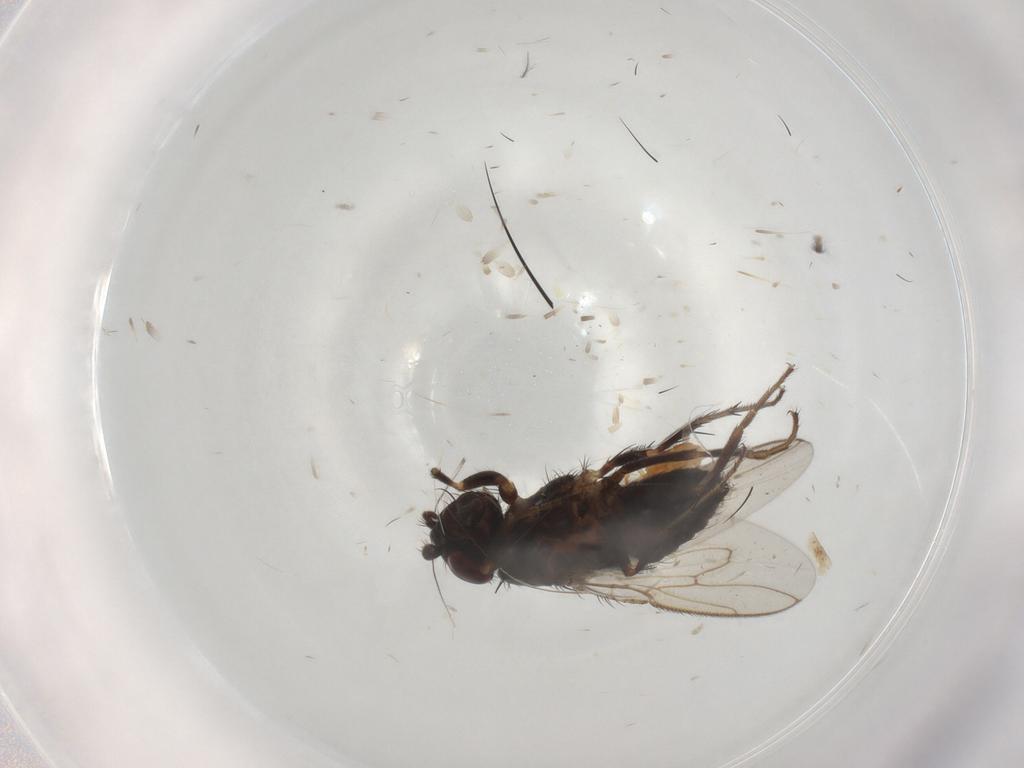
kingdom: Animalia
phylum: Arthropoda
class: Insecta
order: Diptera
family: Sphaeroceridae
